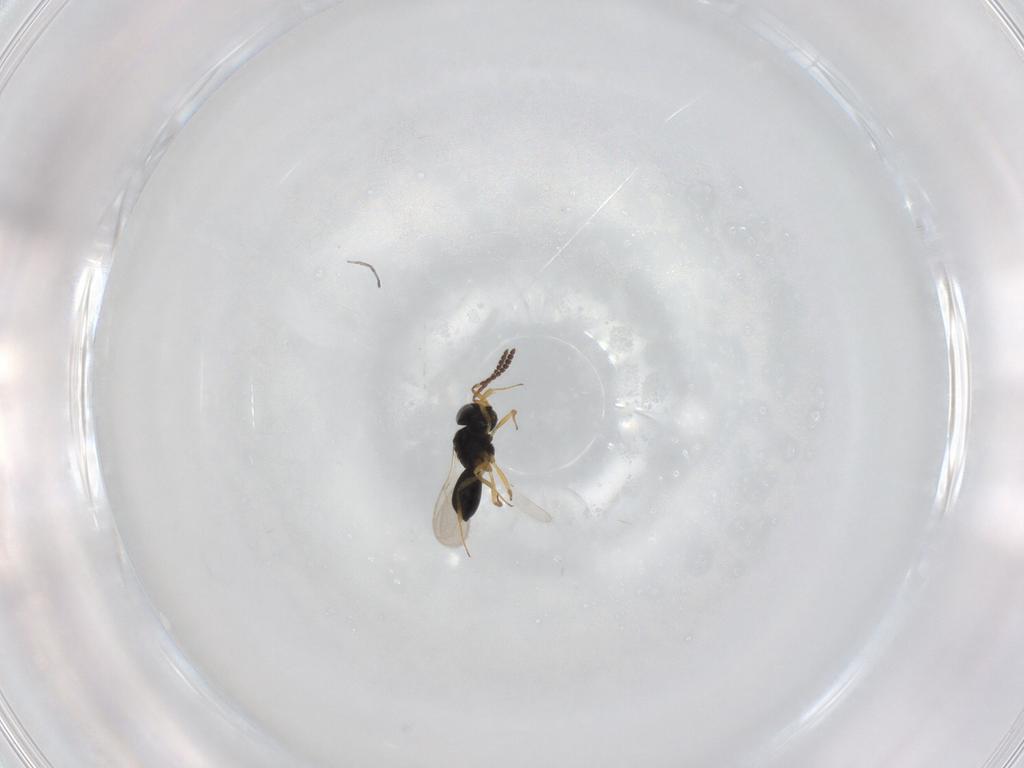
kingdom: Animalia
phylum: Arthropoda
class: Insecta
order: Hymenoptera
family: Scelionidae
